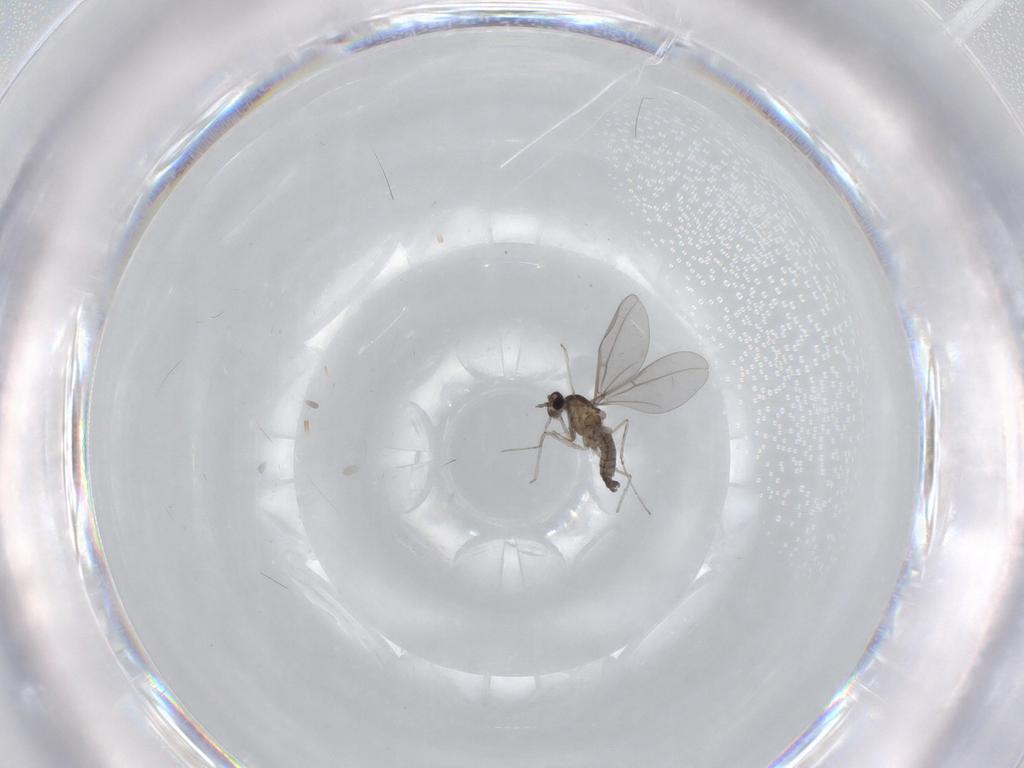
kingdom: Animalia
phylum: Arthropoda
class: Insecta
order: Diptera
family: Cecidomyiidae
